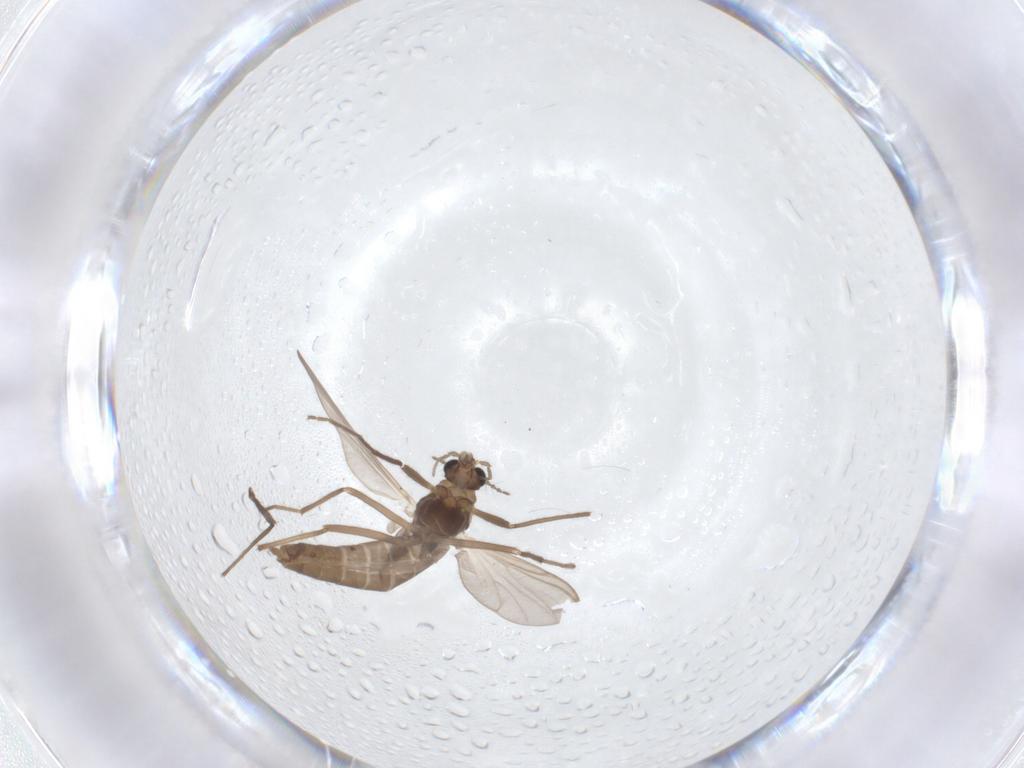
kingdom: Animalia
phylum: Arthropoda
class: Insecta
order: Diptera
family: Chironomidae
